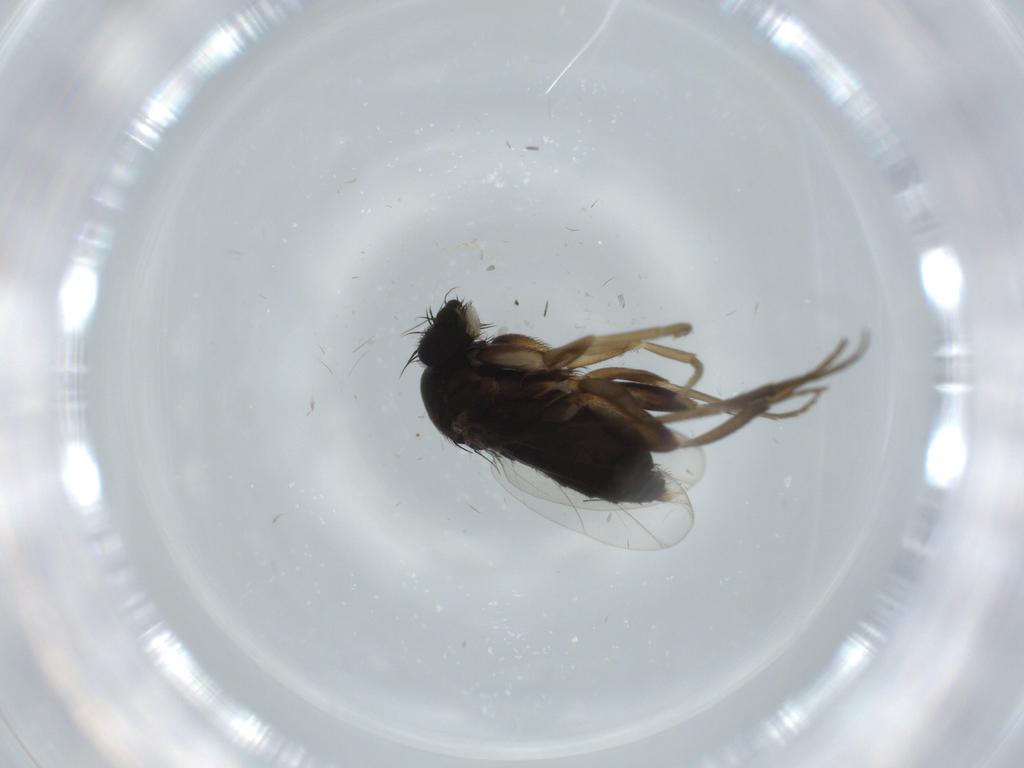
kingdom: Animalia
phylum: Arthropoda
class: Insecta
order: Diptera
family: Phoridae
